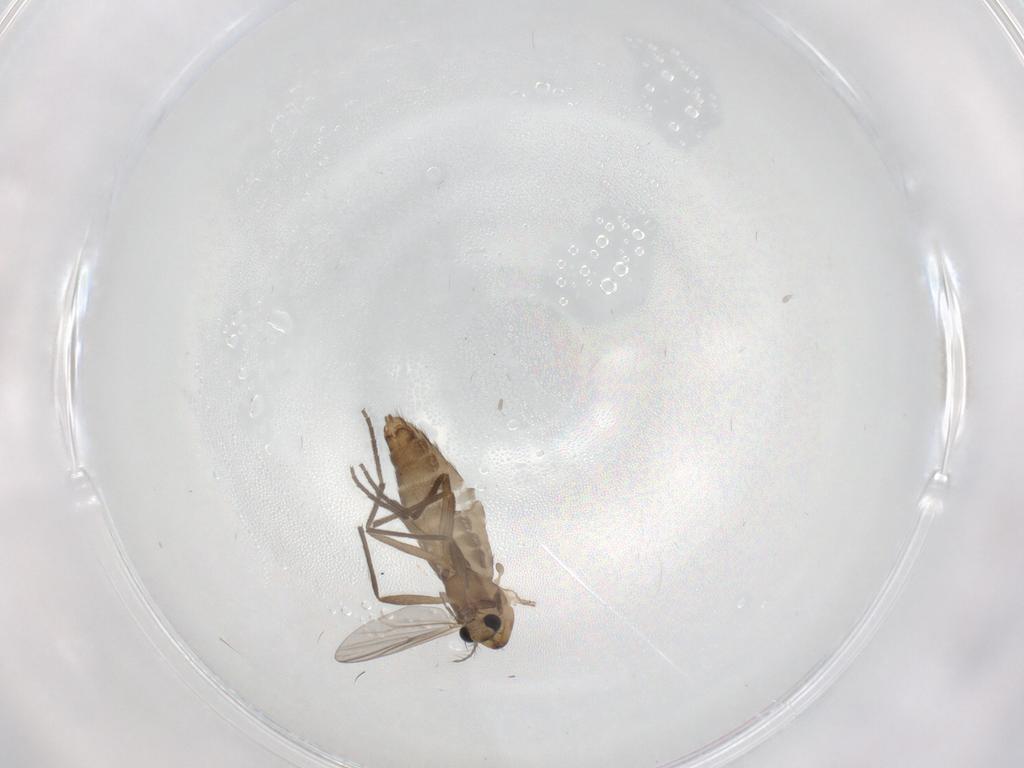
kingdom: Animalia
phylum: Arthropoda
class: Insecta
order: Diptera
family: Chironomidae
